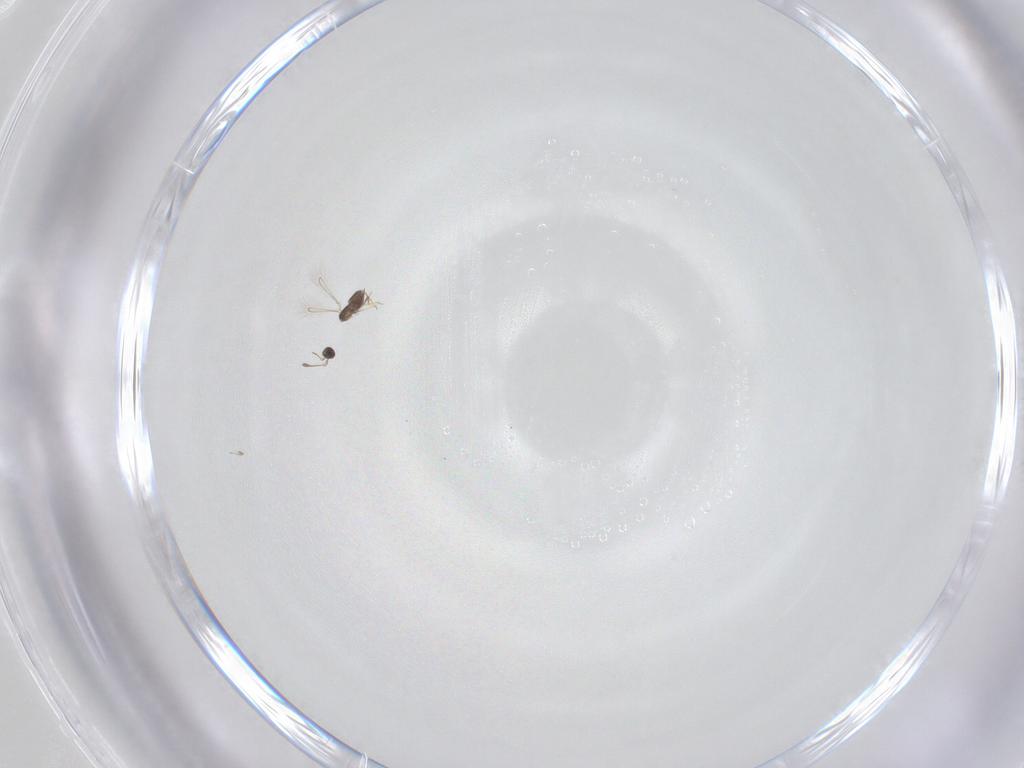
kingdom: Animalia
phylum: Arthropoda
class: Insecta
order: Hymenoptera
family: Mymaridae
